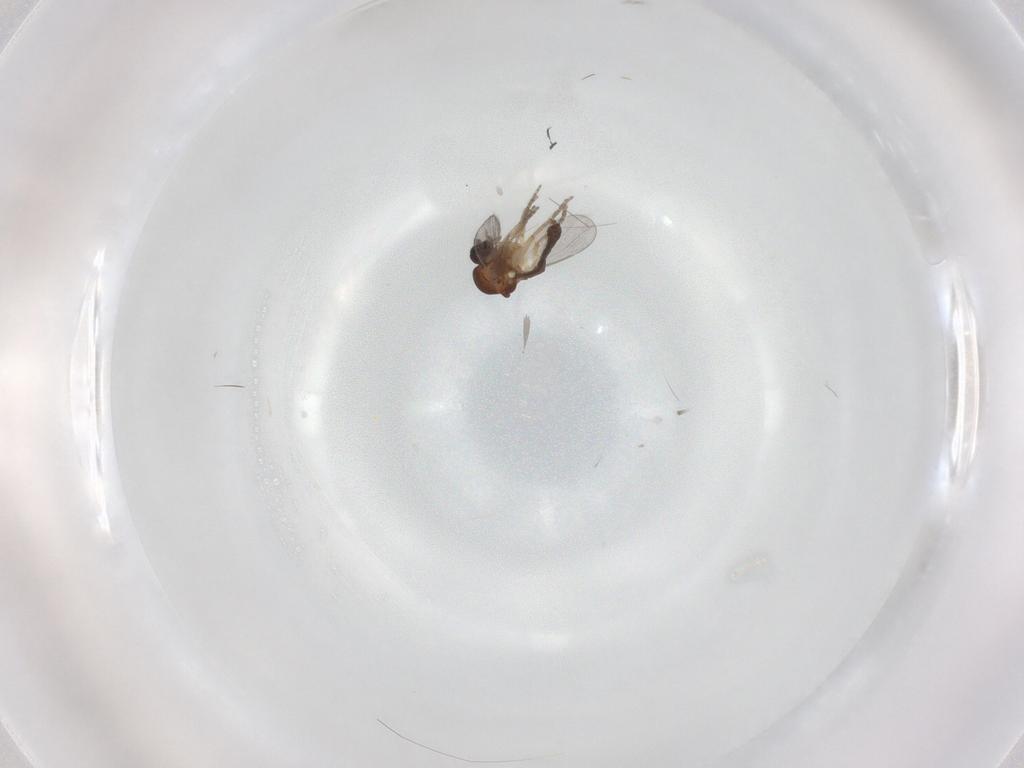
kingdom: Animalia
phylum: Arthropoda
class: Insecta
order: Diptera
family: Ceratopogonidae
